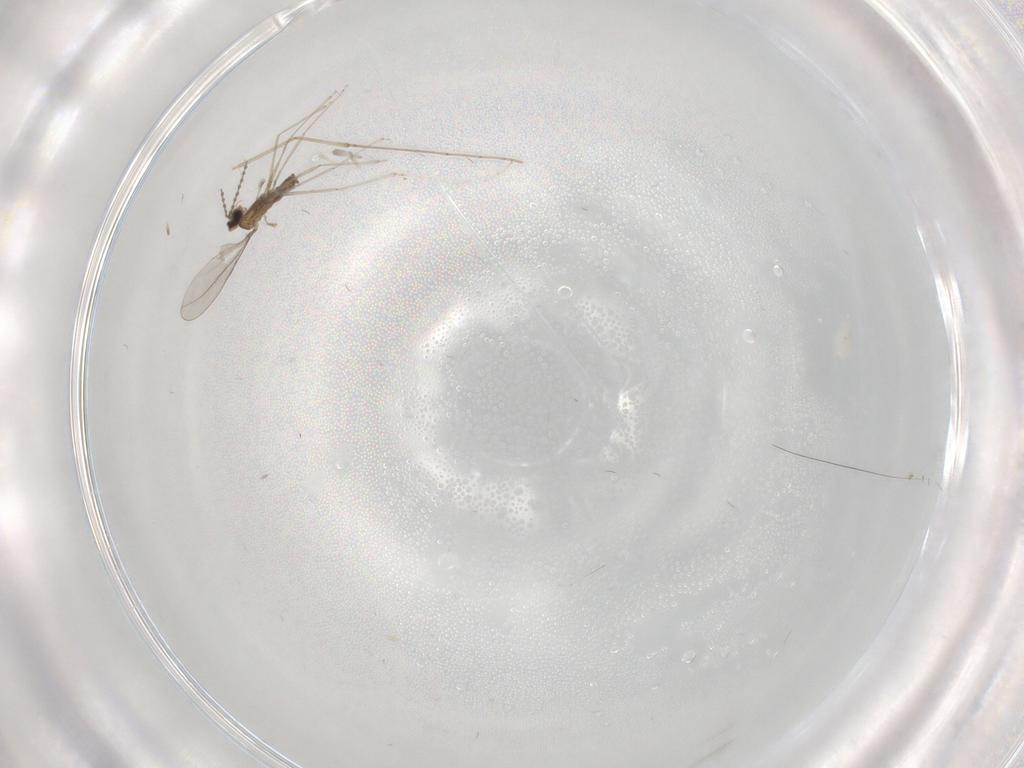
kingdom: Animalia
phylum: Arthropoda
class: Insecta
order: Diptera
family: Cecidomyiidae
